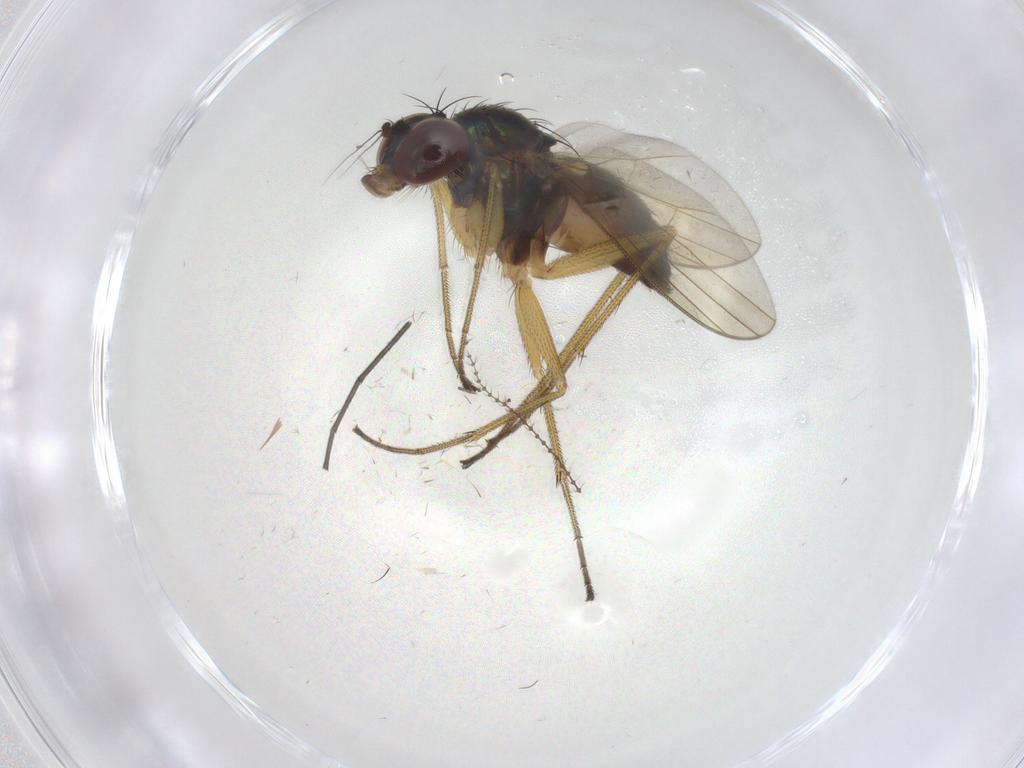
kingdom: Animalia
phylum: Arthropoda
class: Insecta
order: Diptera
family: Dolichopodidae
